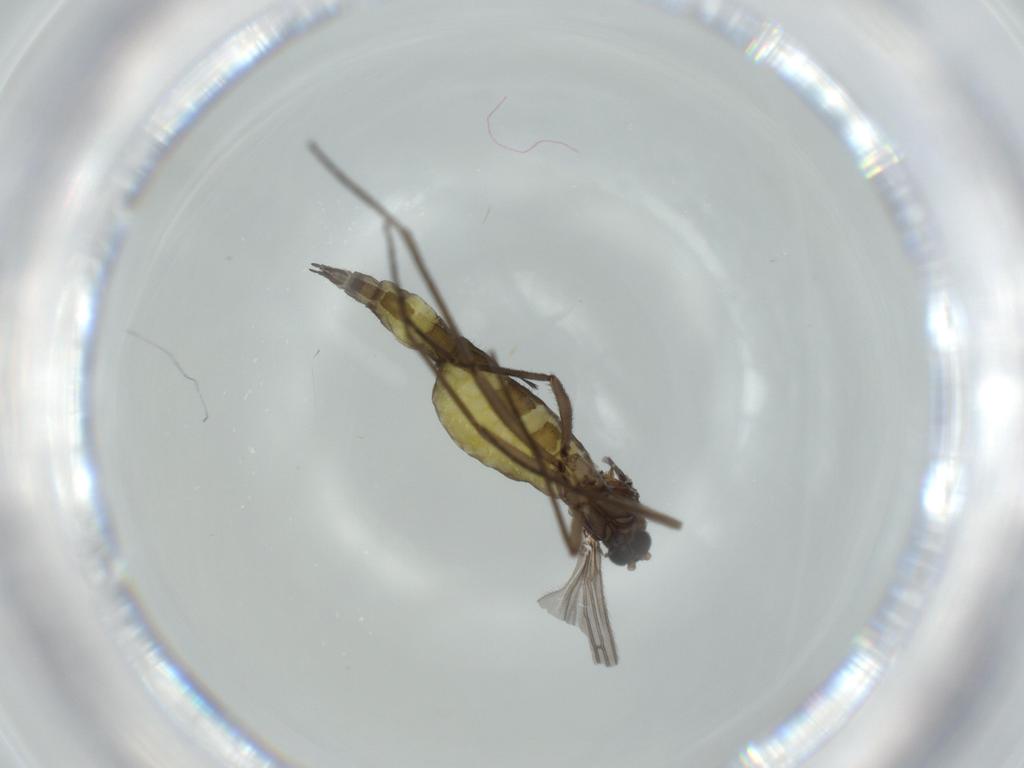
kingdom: Animalia
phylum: Arthropoda
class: Insecta
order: Diptera
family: Sciaridae
